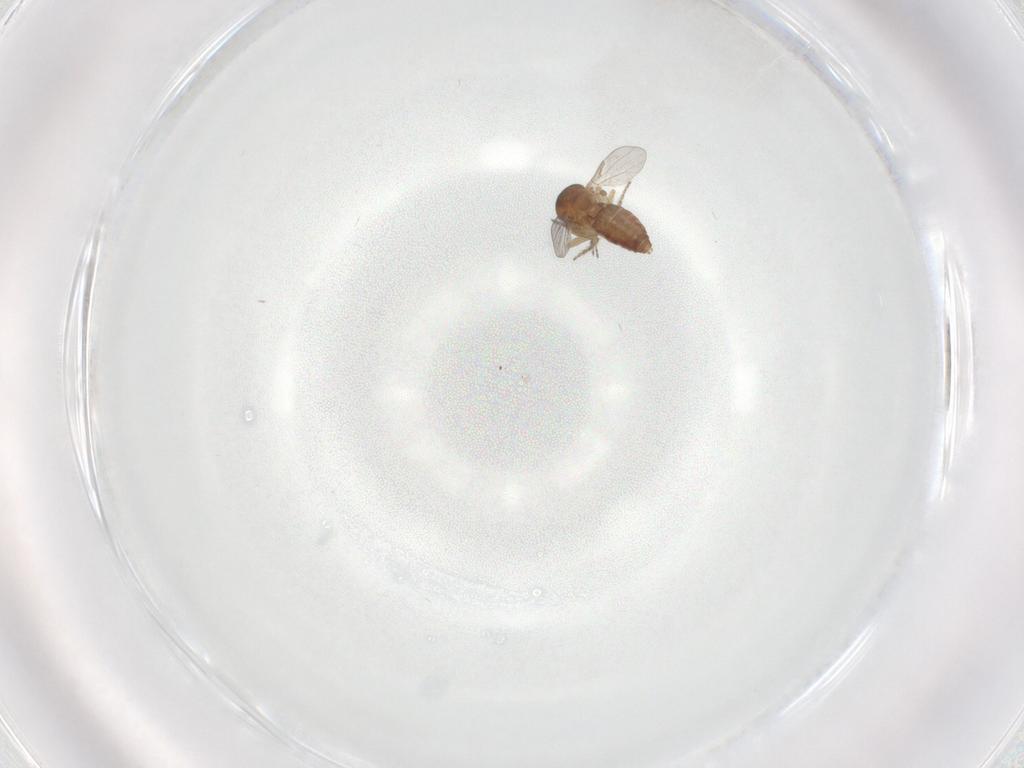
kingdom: Animalia
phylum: Arthropoda
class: Insecta
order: Diptera
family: Ceratopogonidae
